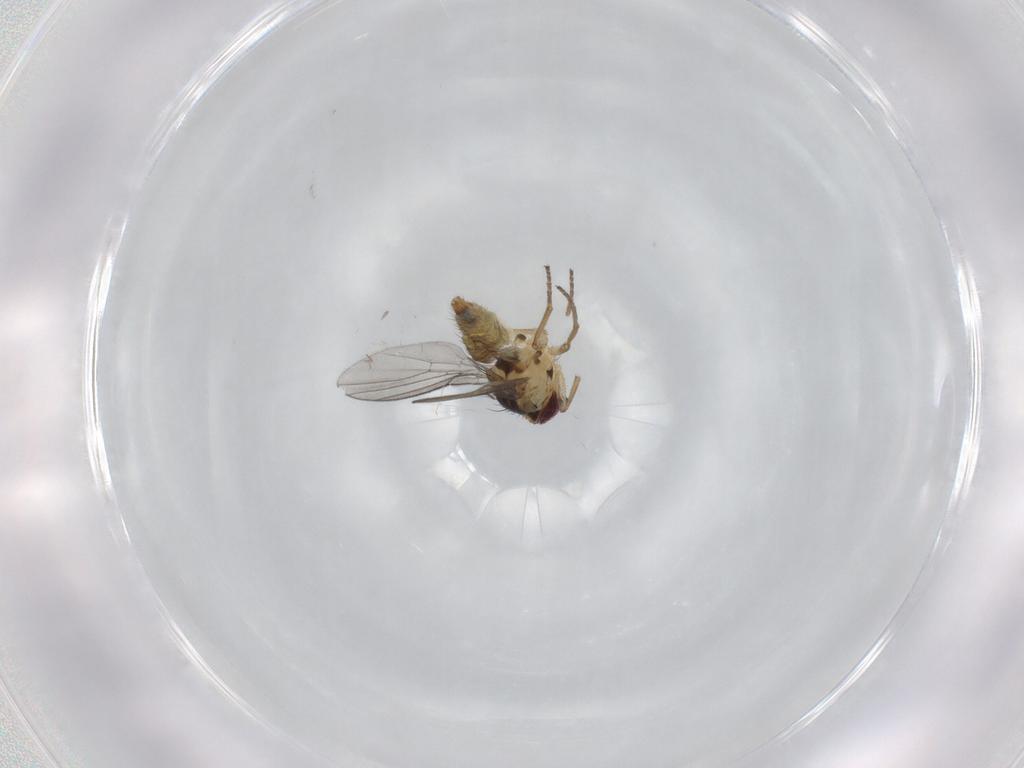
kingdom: Animalia
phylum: Arthropoda
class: Insecta
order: Diptera
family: Agromyzidae
